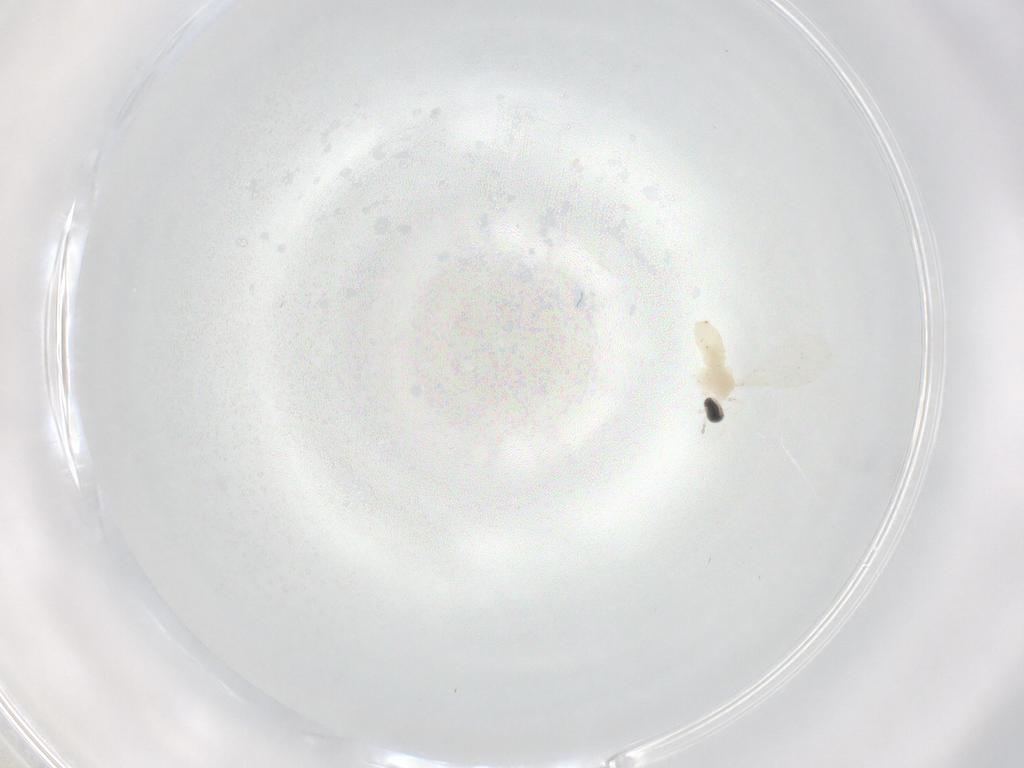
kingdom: Animalia
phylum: Arthropoda
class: Insecta
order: Diptera
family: Sciaridae
